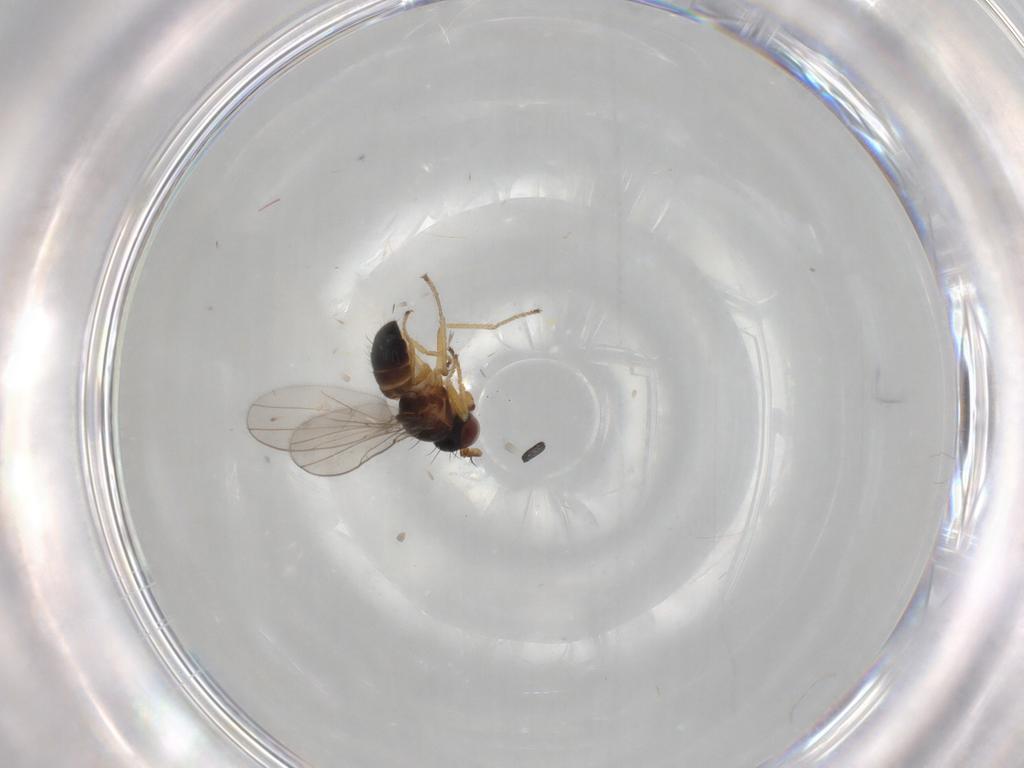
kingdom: Animalia
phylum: Arthropoda
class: Insecta
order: Diptera
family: Ephydridae
